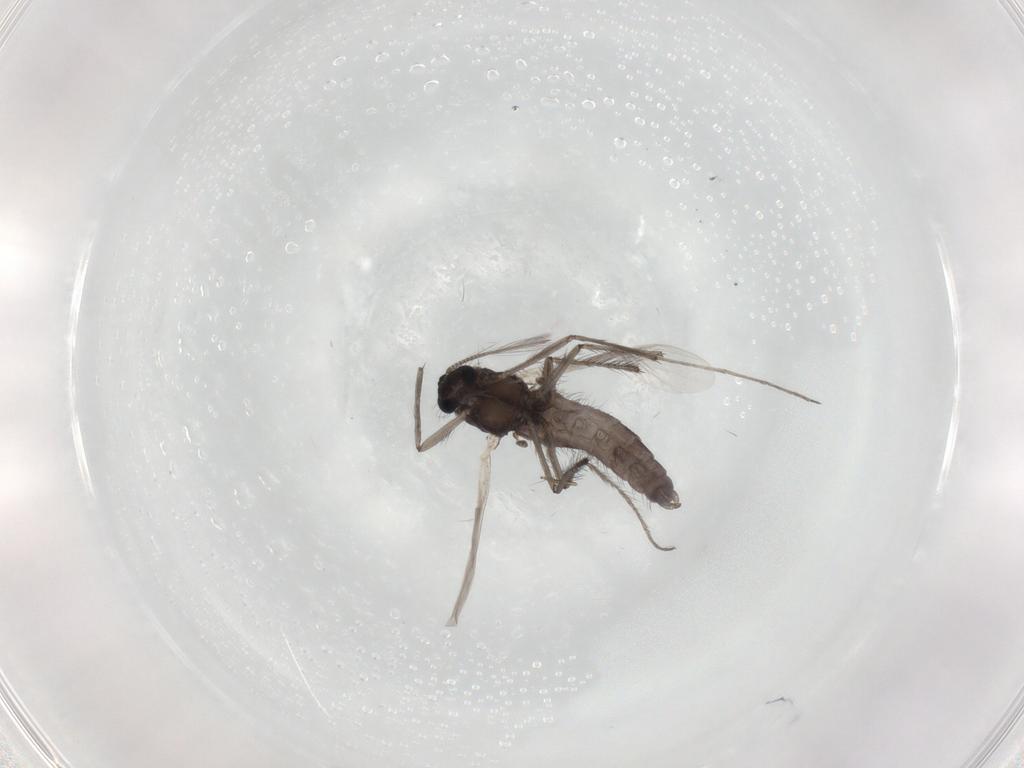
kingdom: Animalia
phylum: Arthropoda
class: Insecta
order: Diptera
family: Chironomidae
